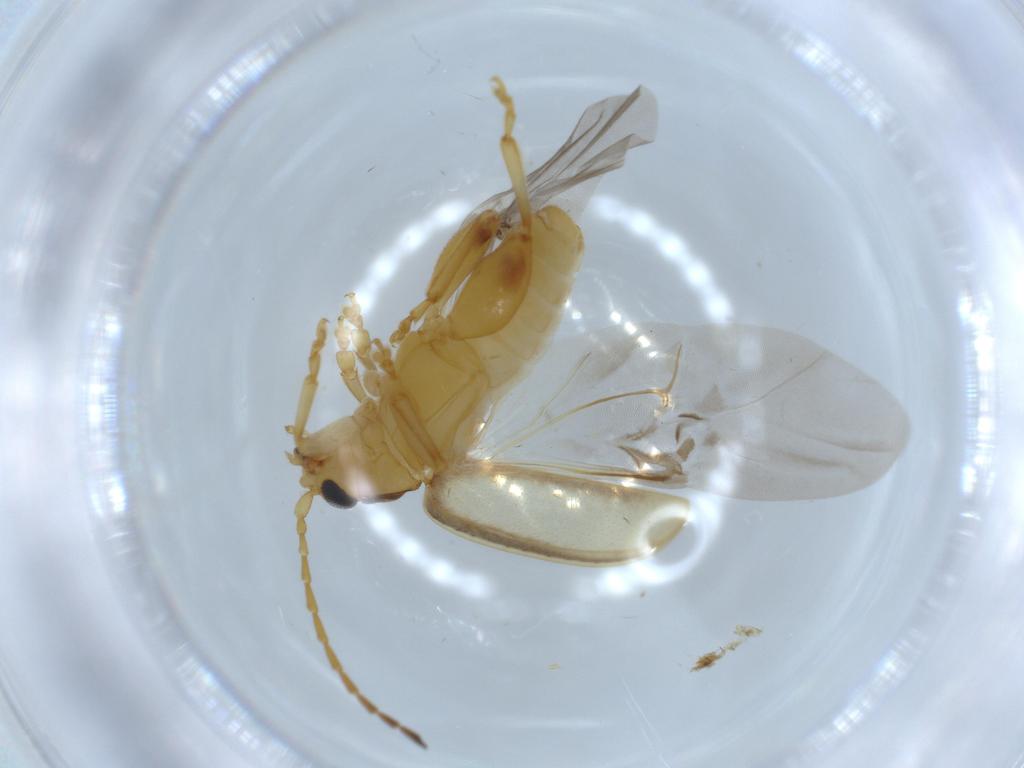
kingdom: Animalia
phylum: Arthropoda
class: Insecta
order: Coleoptera
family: Chrysomelidae
